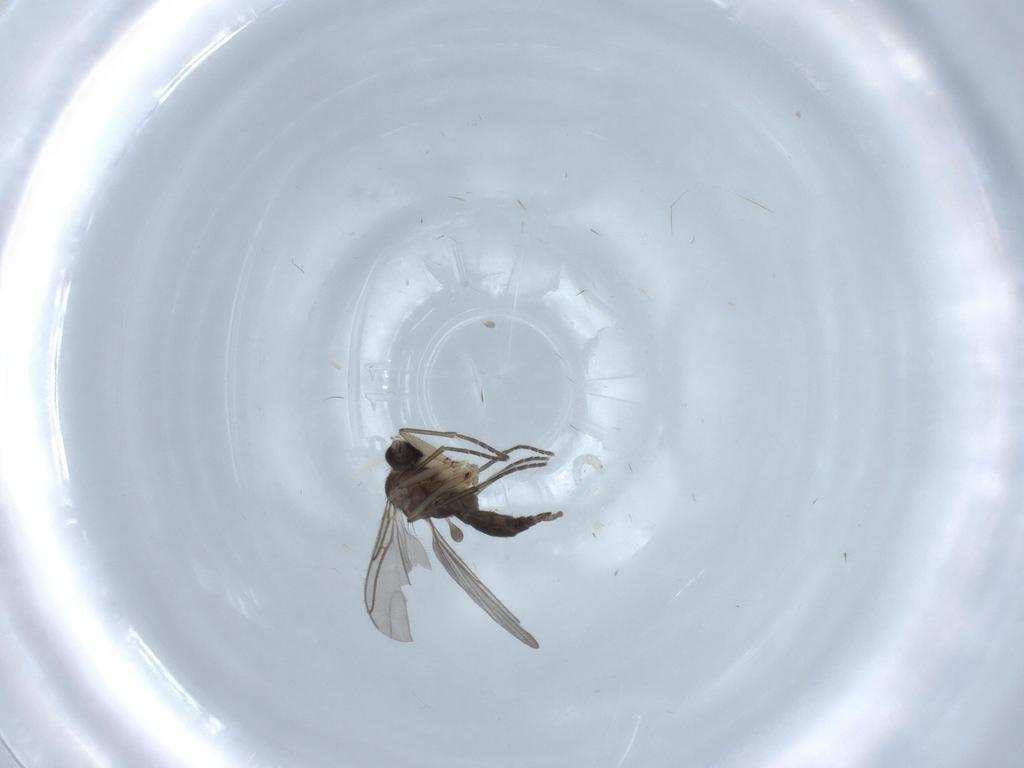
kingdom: Animalia
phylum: Arthropoda
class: Insecta
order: Diptera
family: Sciaridae
